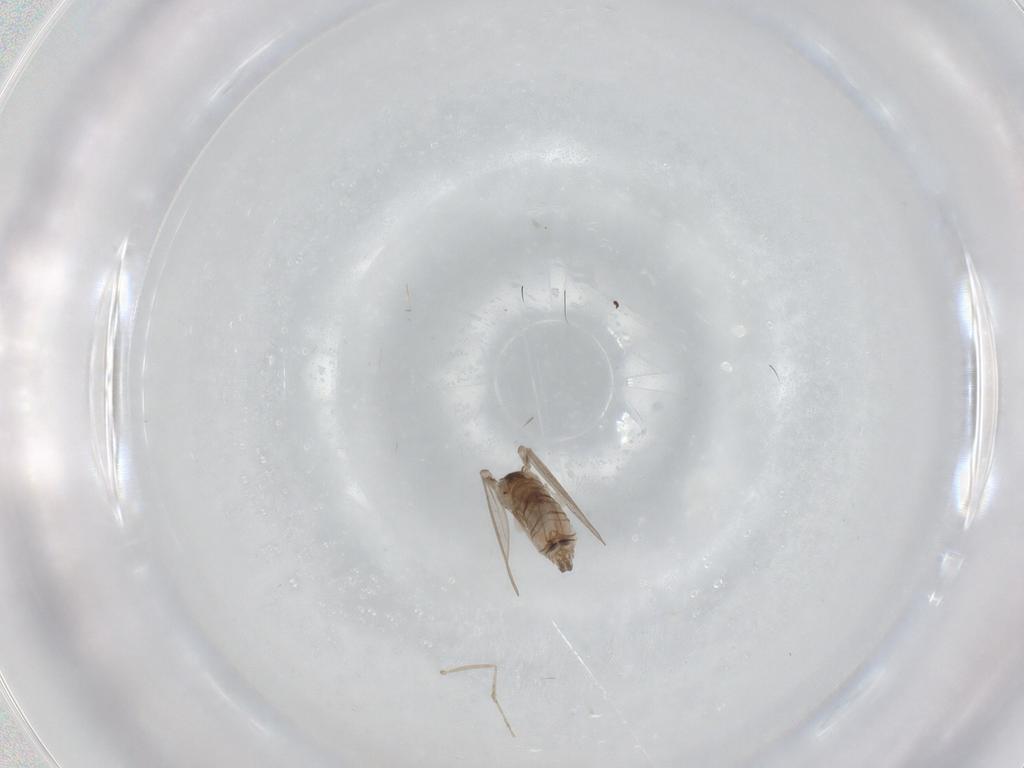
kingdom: Animalia
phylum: Arthropoda
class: Insecta
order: Diptera
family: Psychodidae
